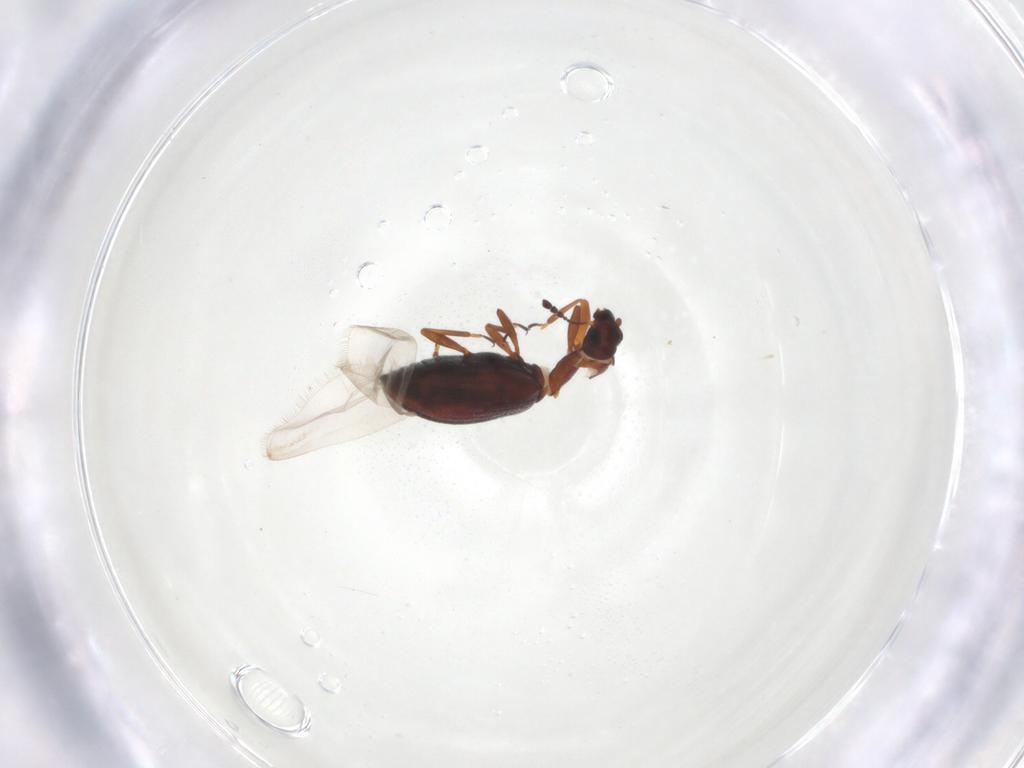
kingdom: Animalia
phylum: Arthropoda
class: Insecta
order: Coleoptera
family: Latridiidae
